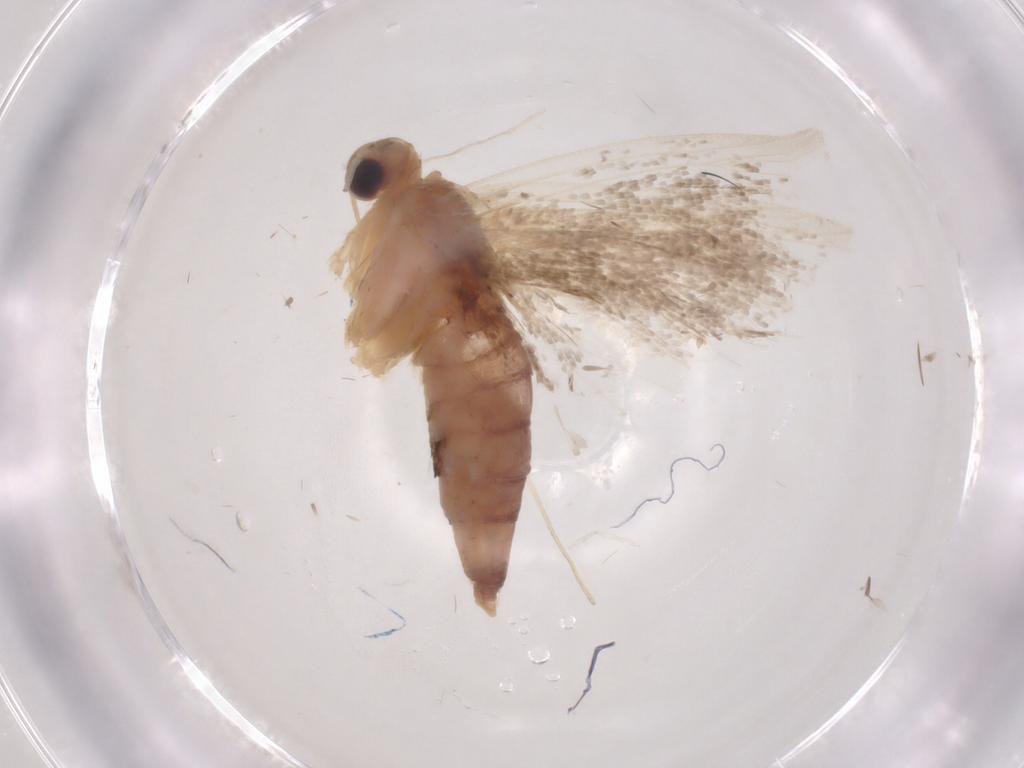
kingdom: Animalia
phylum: Arthropoda
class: Insecta
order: Lepidoptera
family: Crambidae
